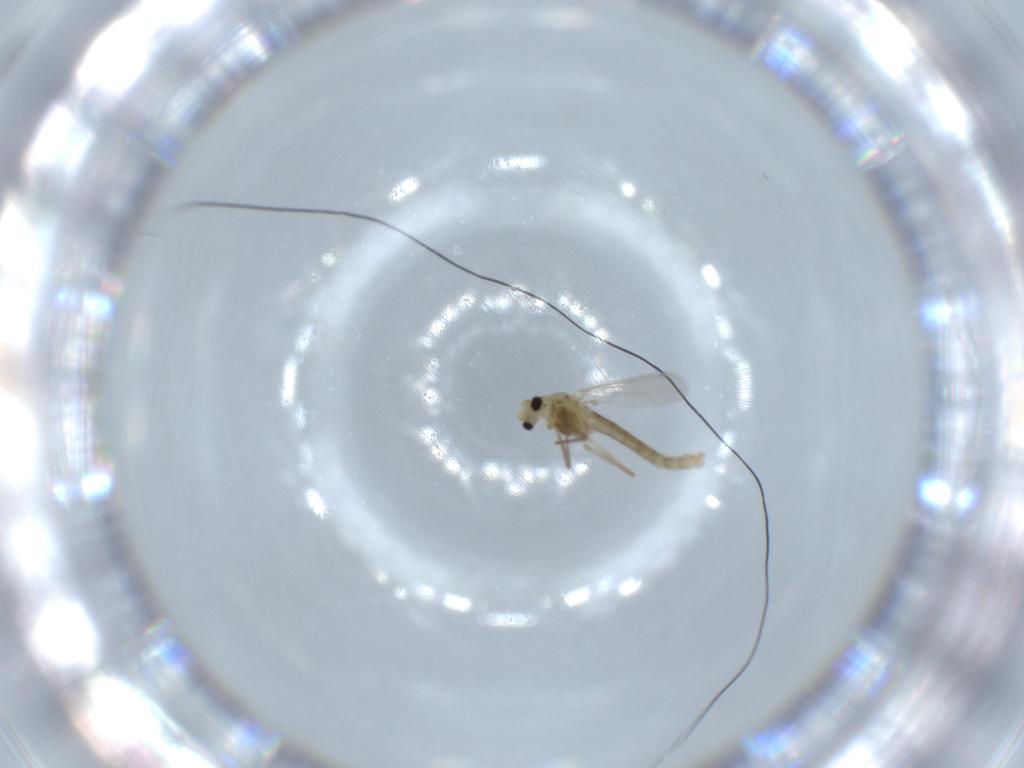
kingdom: Animalia
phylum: Arthropoda
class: Insecta
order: Diptera
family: Chironomidae
